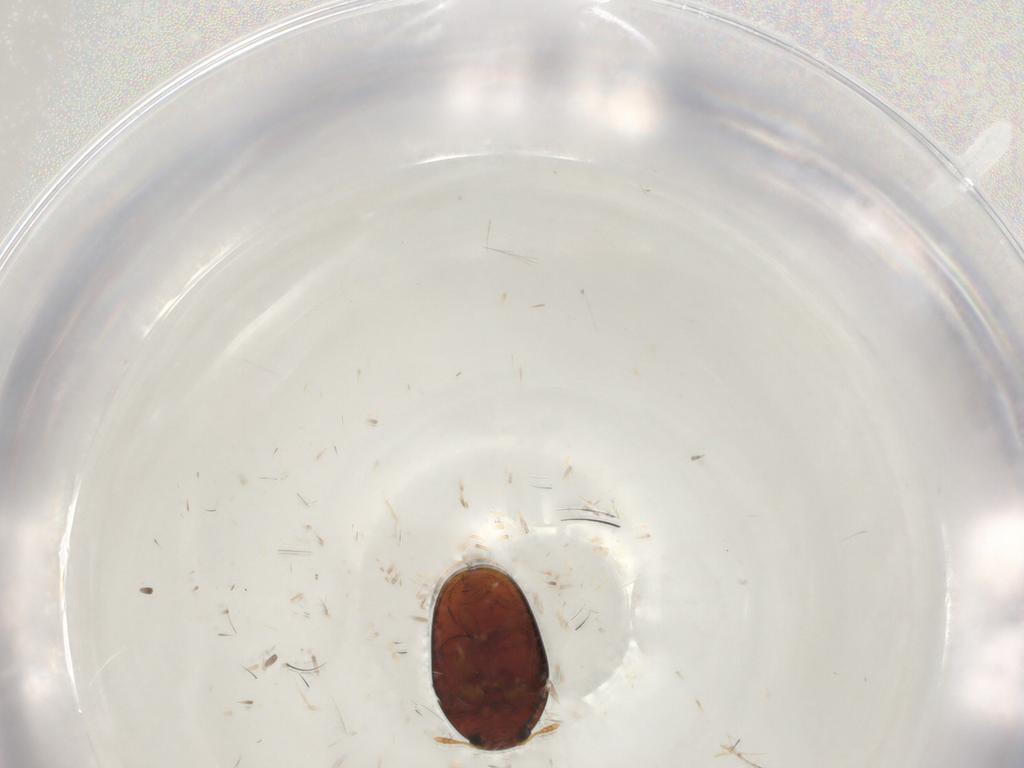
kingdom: Animalia
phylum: Arthropoda
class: Insecta
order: Coleoptera
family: Phalacridae
